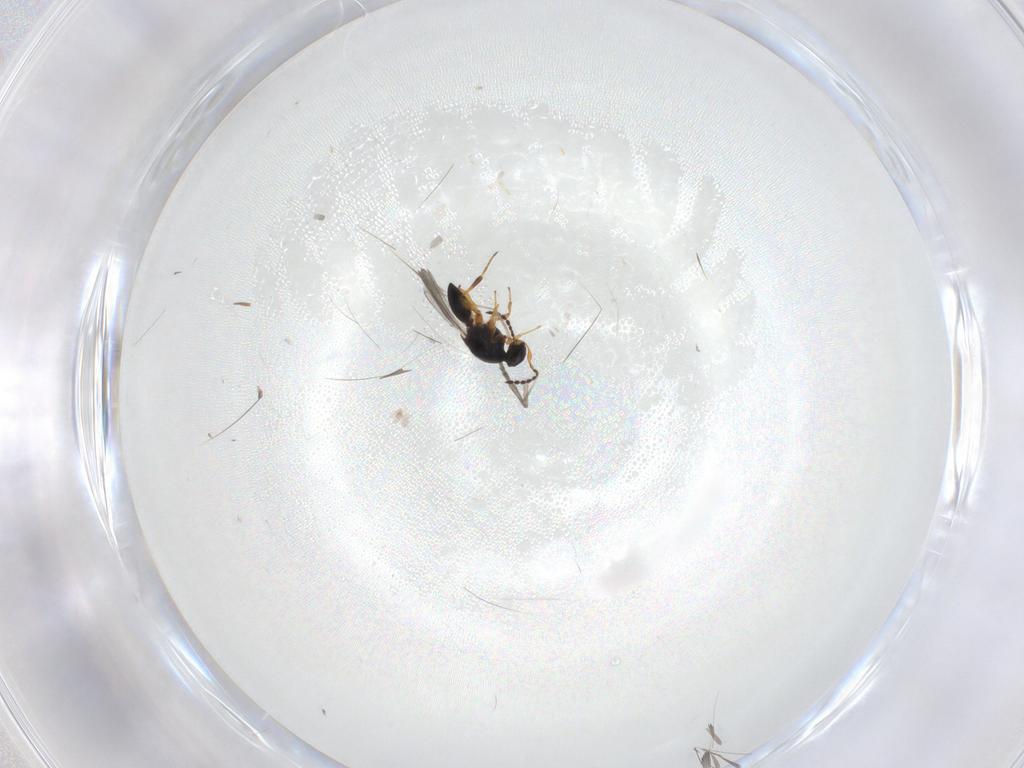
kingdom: Animalia
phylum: Arthropoda
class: Insecta
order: Hymenoptera
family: Platygastridae
